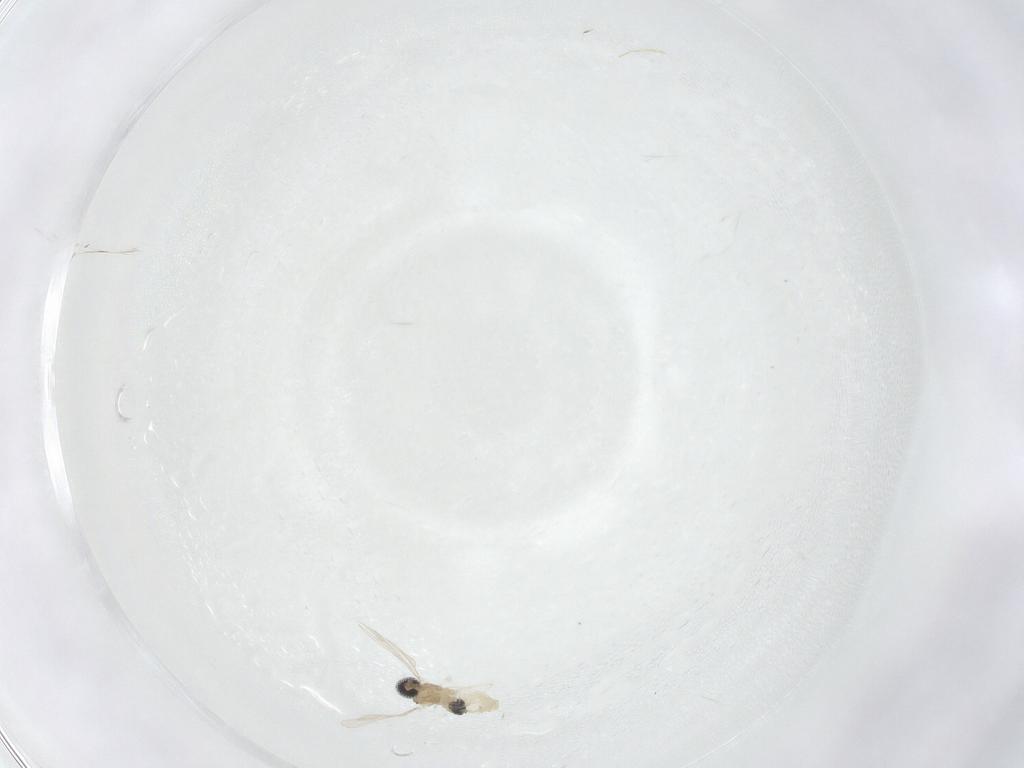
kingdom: Animalia
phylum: Arthropoda
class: Insecta
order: Diptera
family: Cecidomyiidae
